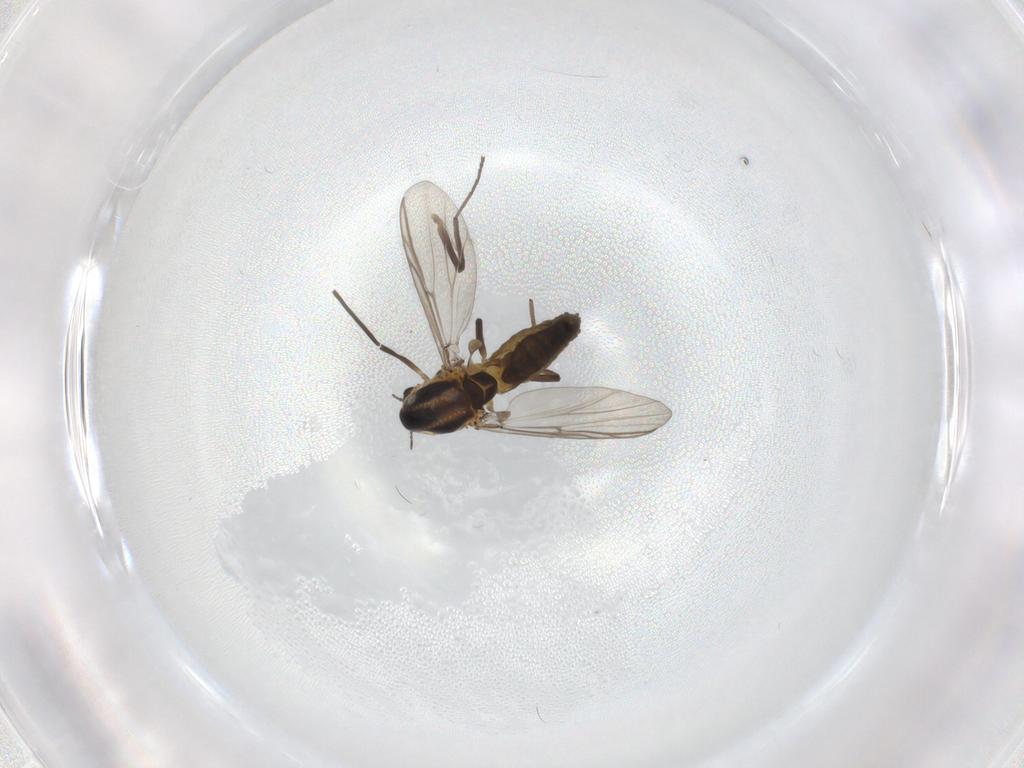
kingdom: Animalia
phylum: Arthropoda
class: Insecta
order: Diptera
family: Chironomidae
